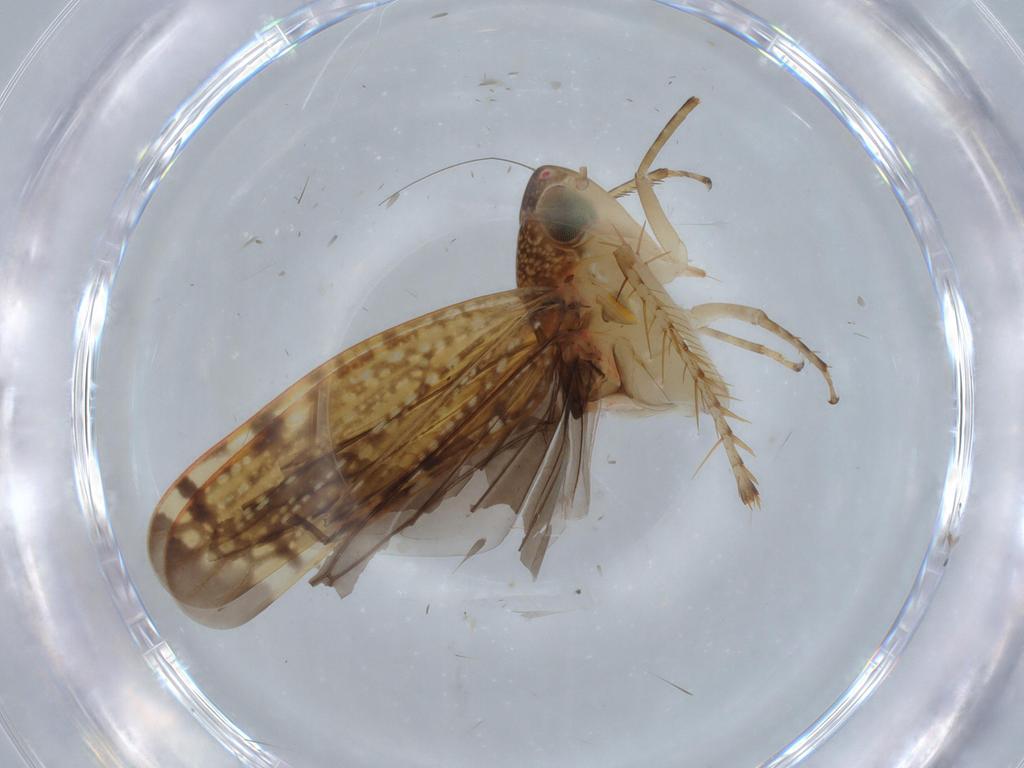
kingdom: Animalia
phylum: Arthropoda
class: Insecta
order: Hemiptera
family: Cicadellidae
